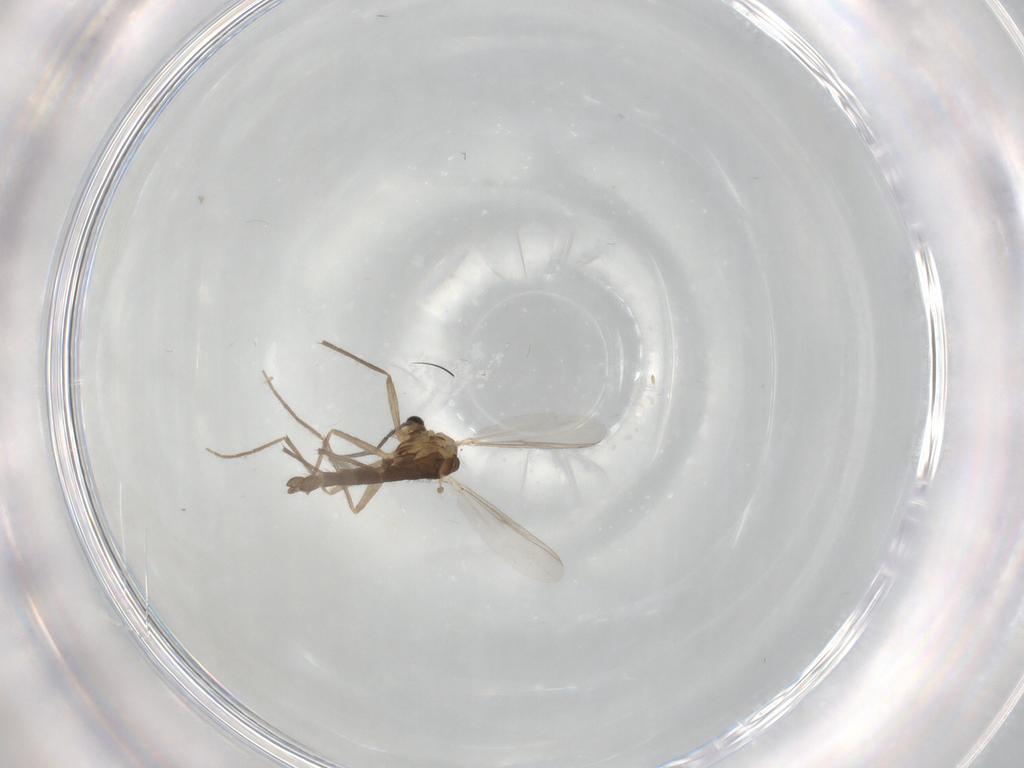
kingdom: Animalia
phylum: Arthropoda
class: Insecta
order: Diptera
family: Chironomidae
